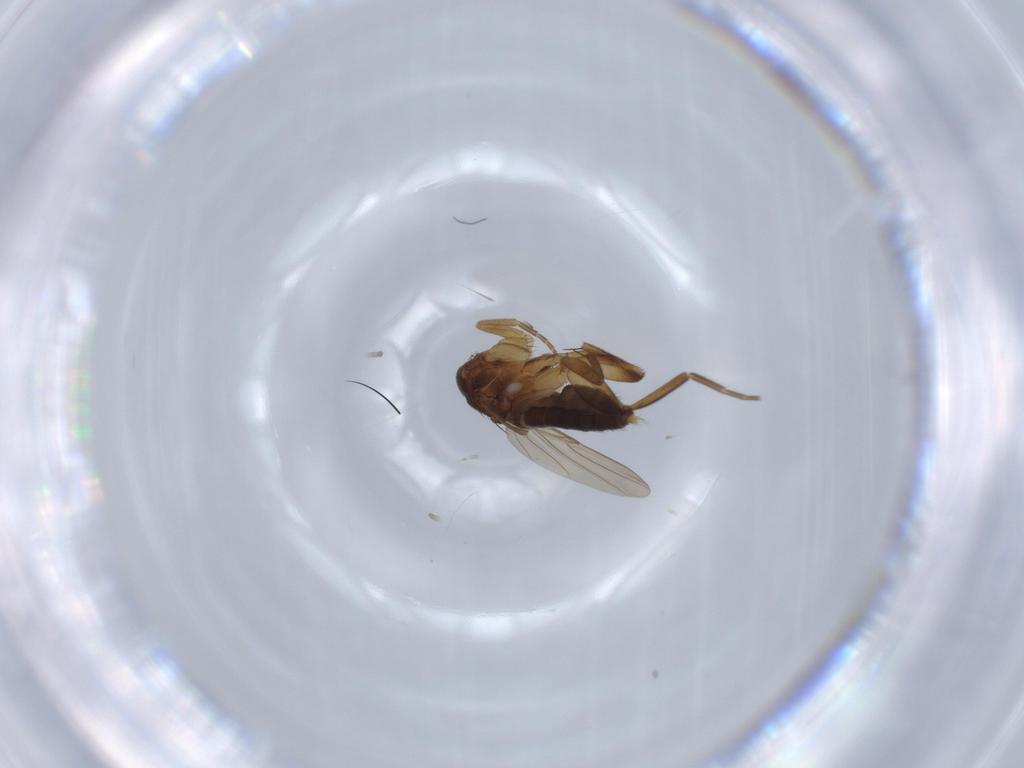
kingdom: Animalia
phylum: Arthropoda
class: Insecta
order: Diptera
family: Phoridae
